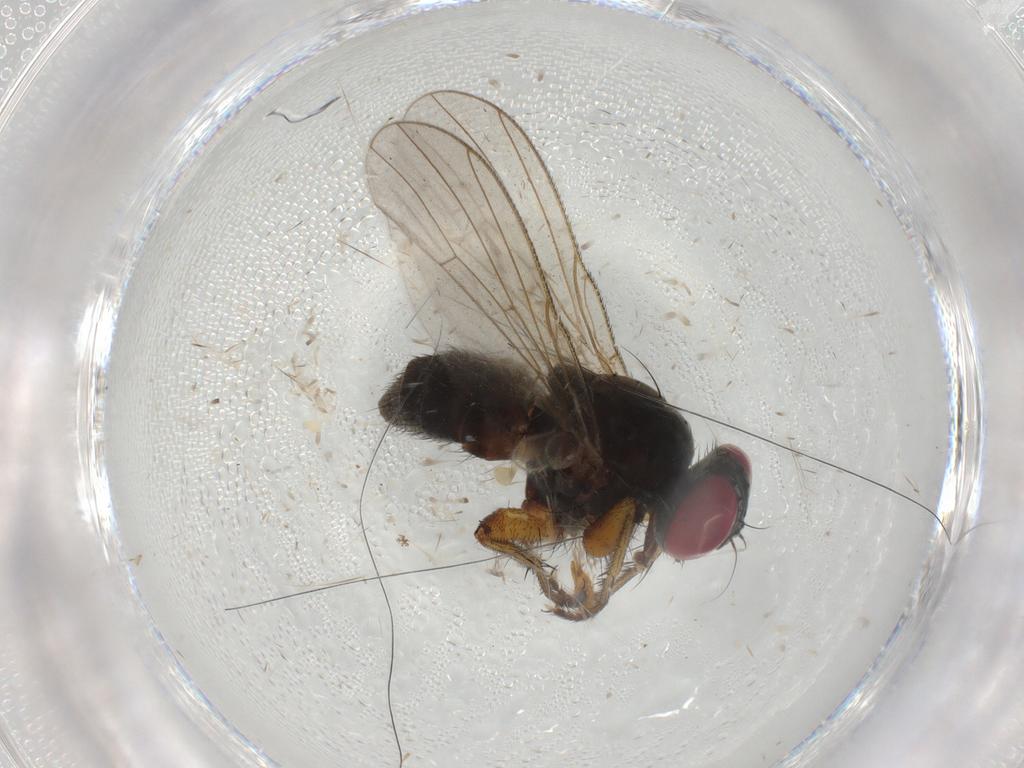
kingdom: Animalia
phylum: Arthropoda
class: Insecta
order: Diptera
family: Muscidae
